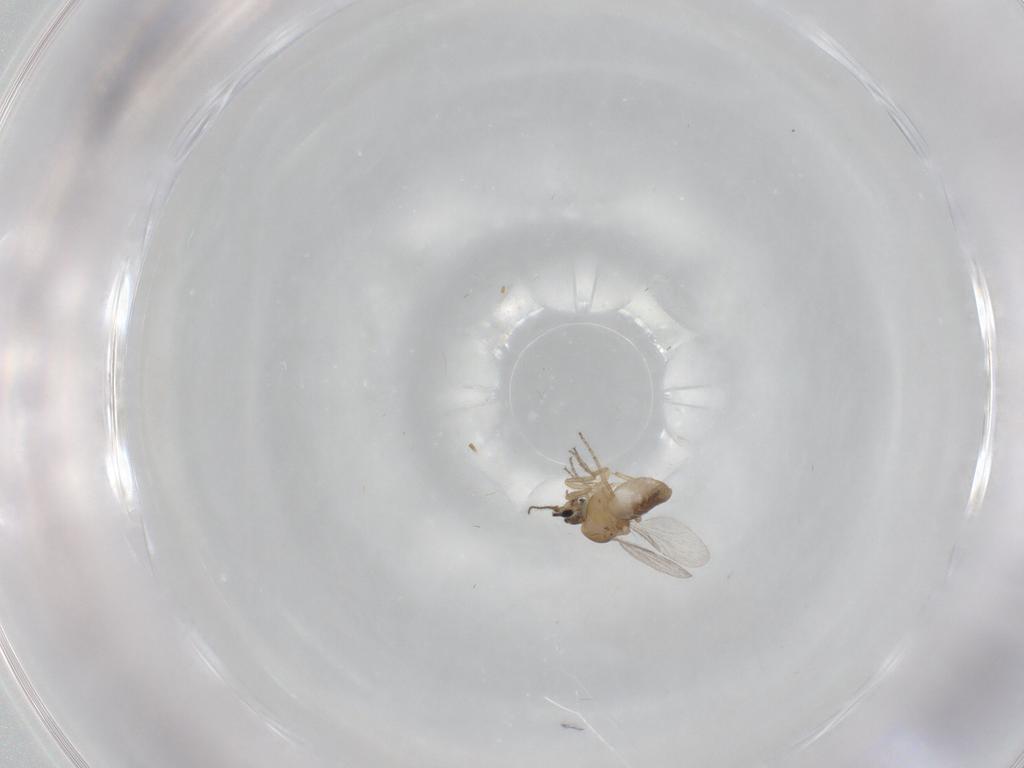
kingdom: Animalia
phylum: Arthropoda
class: Insecta
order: Diptera
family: Ceratopogonidae
